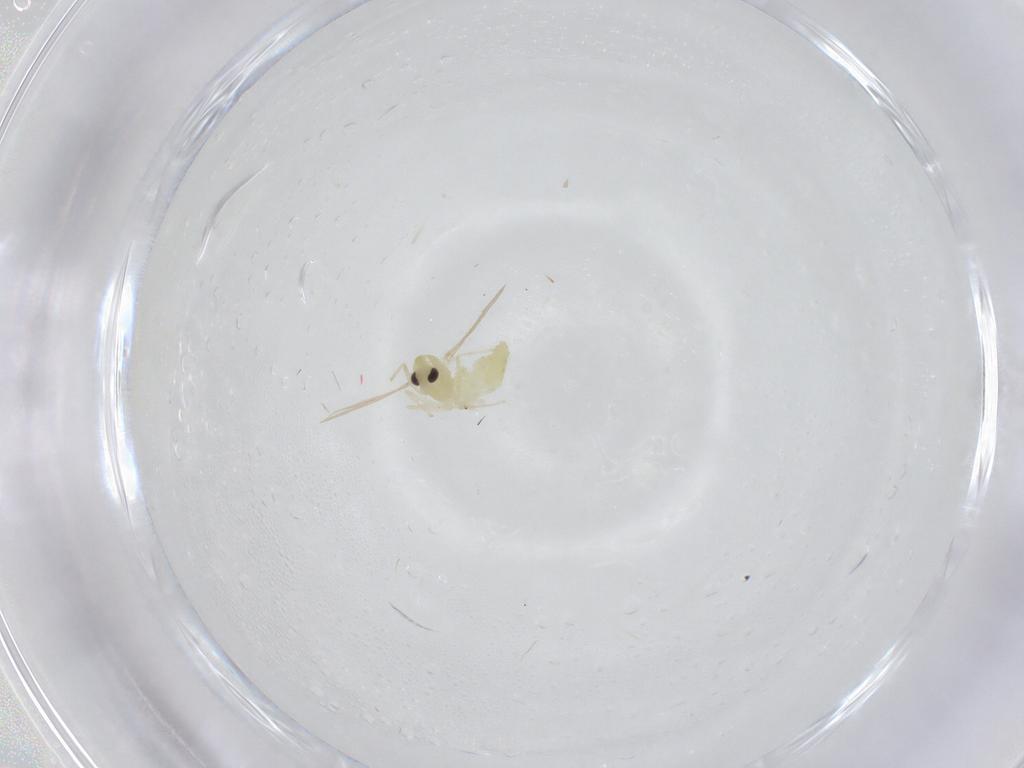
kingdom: Animalia
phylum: Arthropoda
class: Insecta
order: Diptera
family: Chironomidae
